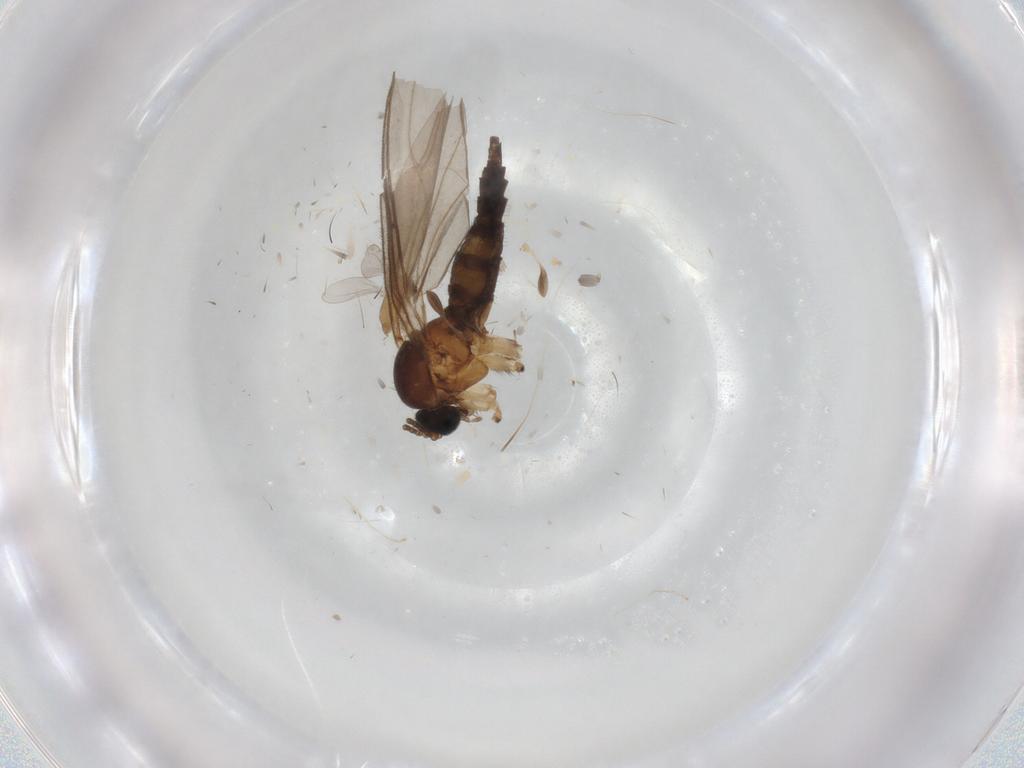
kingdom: Animalia
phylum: Arthropoda
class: Insecta
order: Diptera
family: Sciaridae
